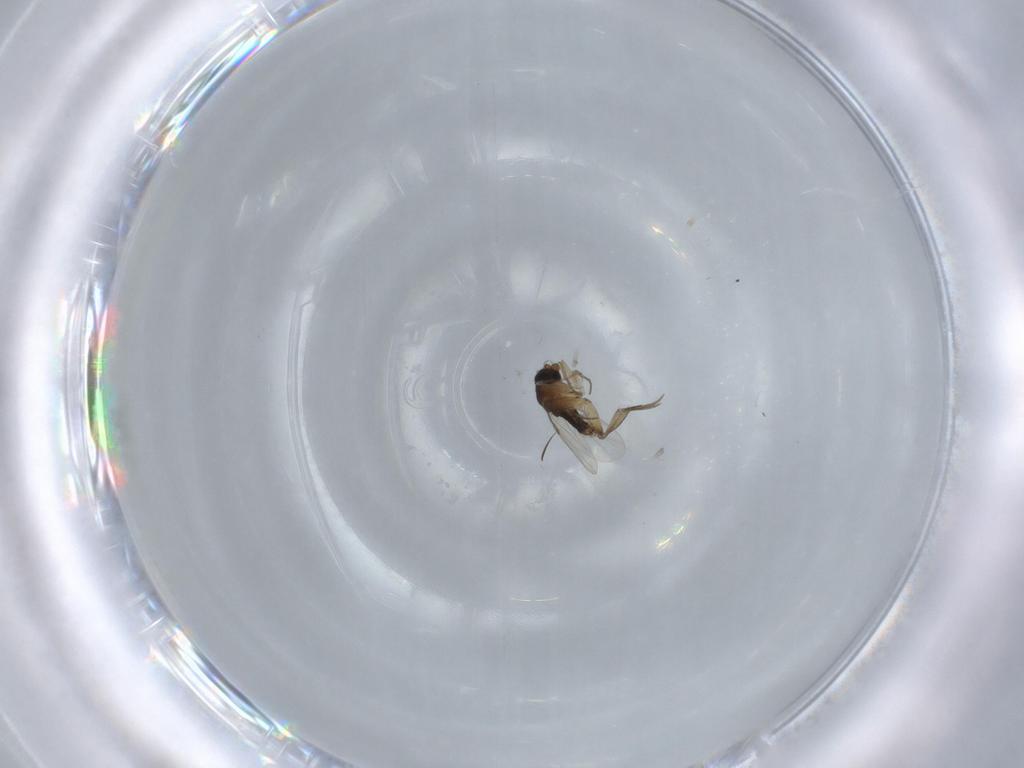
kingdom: Animalia
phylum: Arthropoda
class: Insecta
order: Diptera
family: Phoridae
